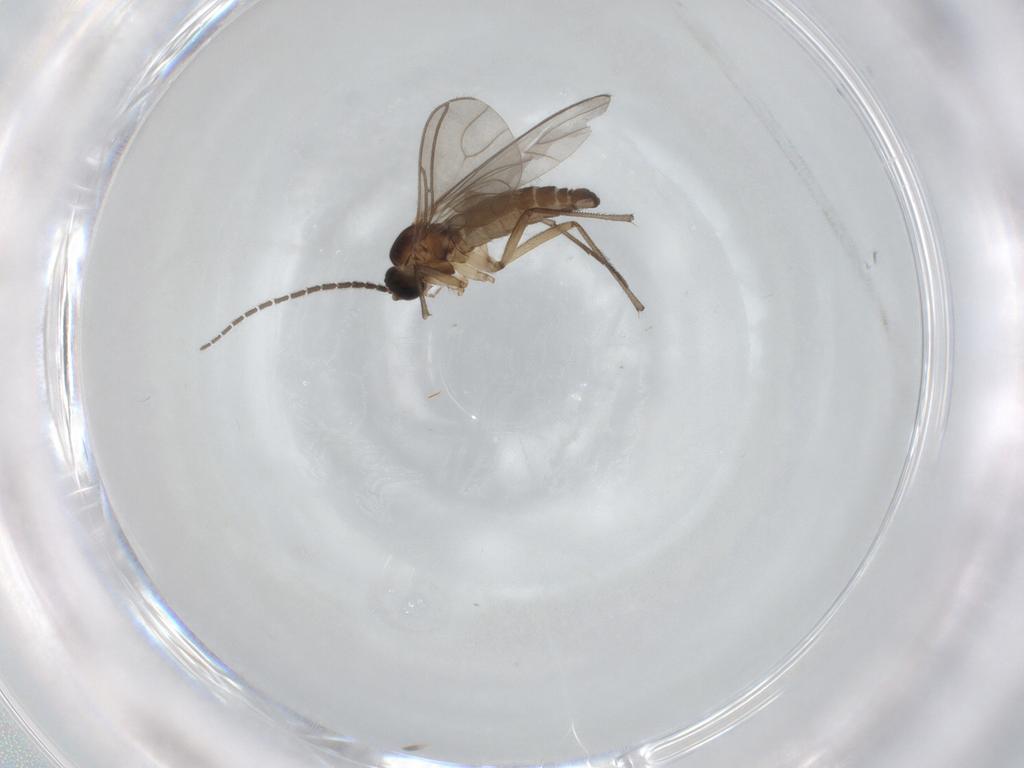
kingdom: Animalia
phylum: Arthropoda
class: Insecta
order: Diptera
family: Sciaridae
